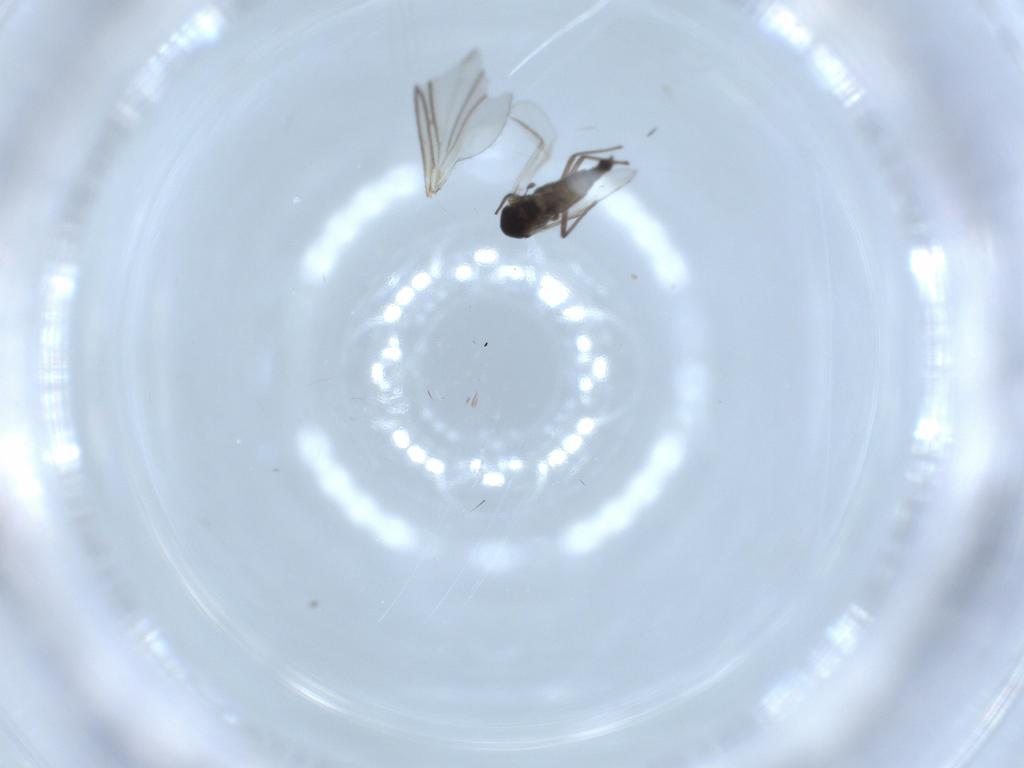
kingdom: Animalia
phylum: Arthropoda
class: Insecta
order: Diptera
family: Chironomidae
